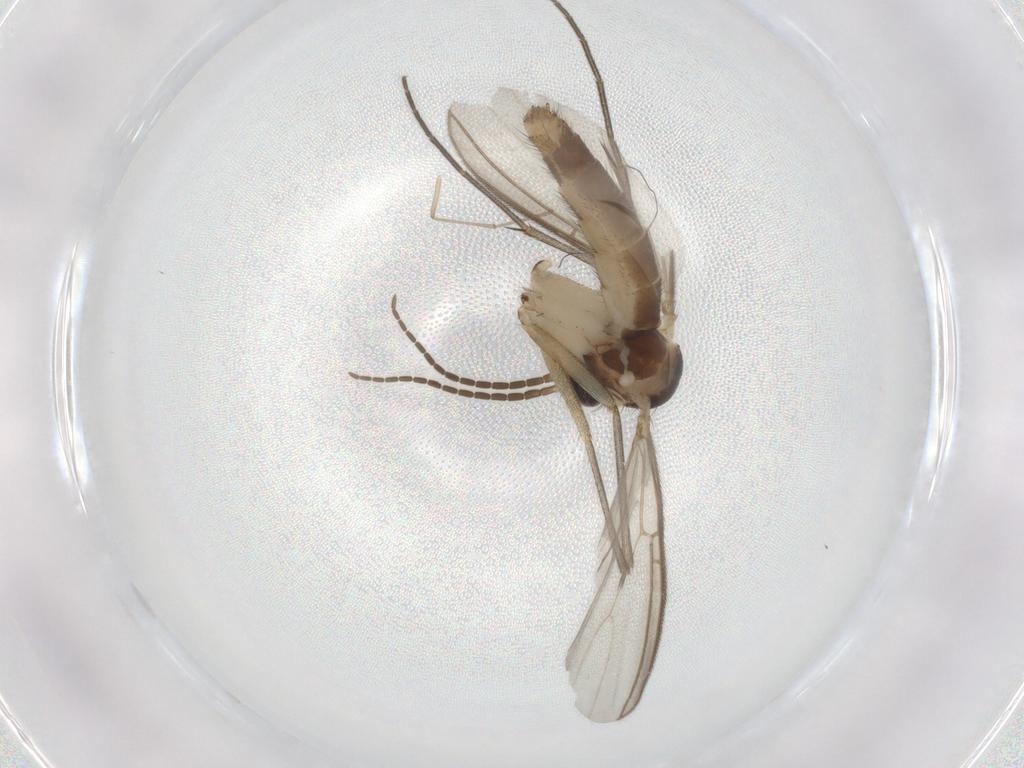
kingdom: Animalia
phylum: Arthropoda
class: Insecta
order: Diptera
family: Mycetophilidae
